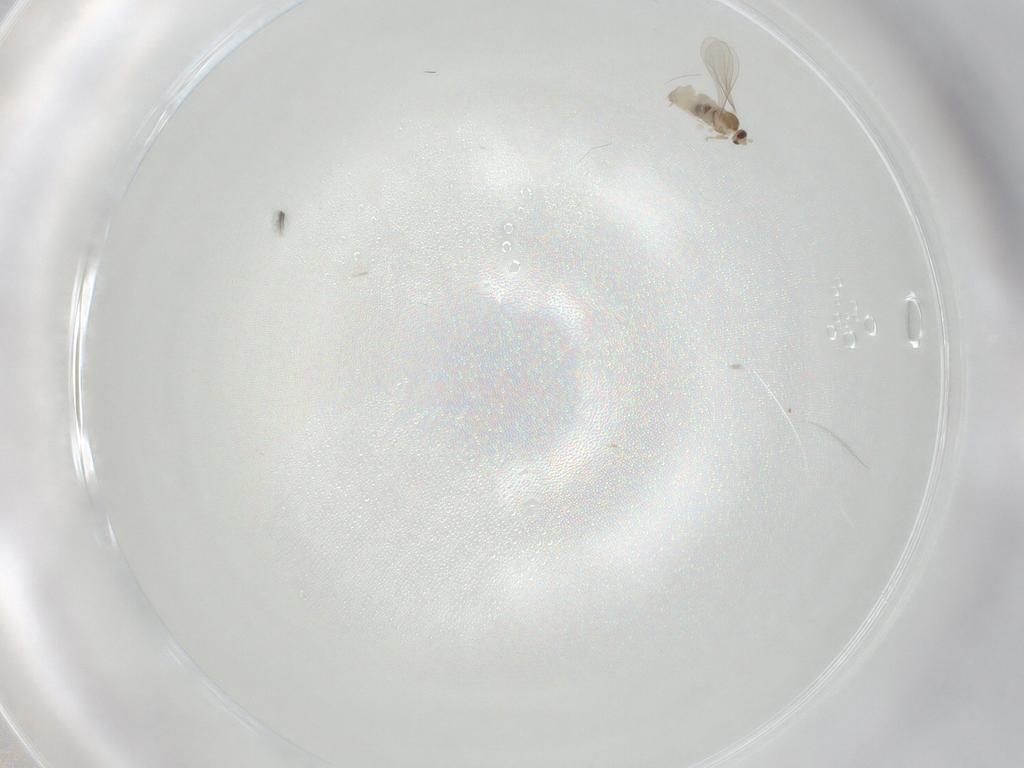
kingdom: Animalia
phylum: Arthropoda
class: Insecta
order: Diptera
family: Cecidomyiidae
